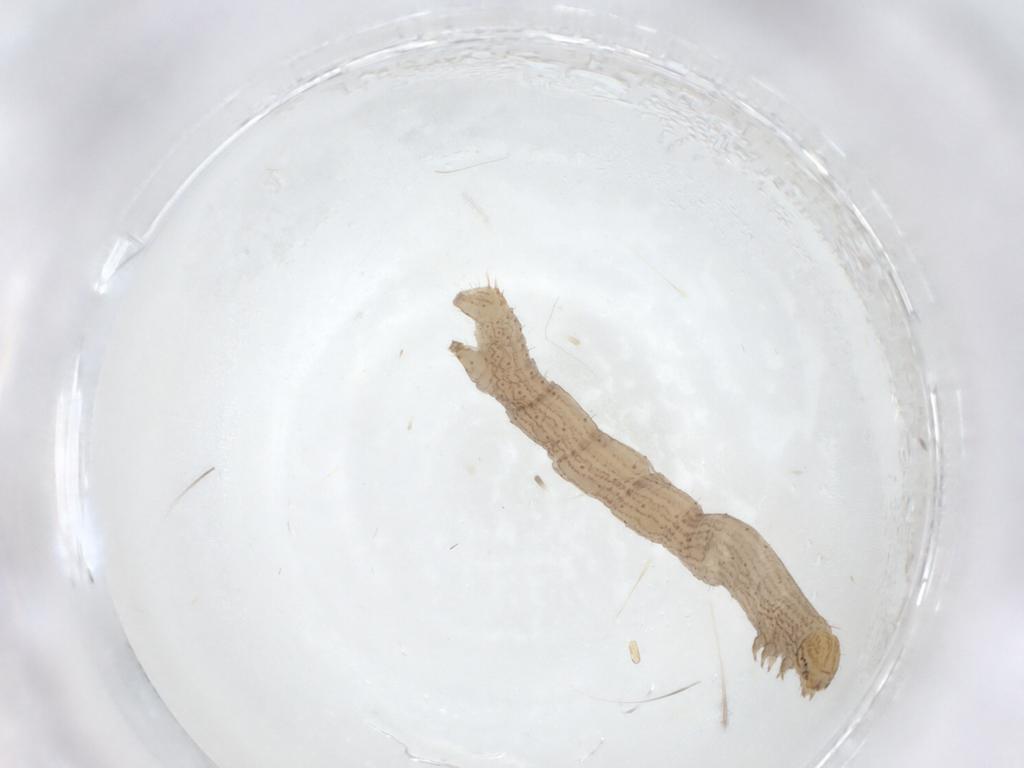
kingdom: Animalia
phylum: Arthropoda
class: Insecta
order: Lepidoptera
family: Geometridae
